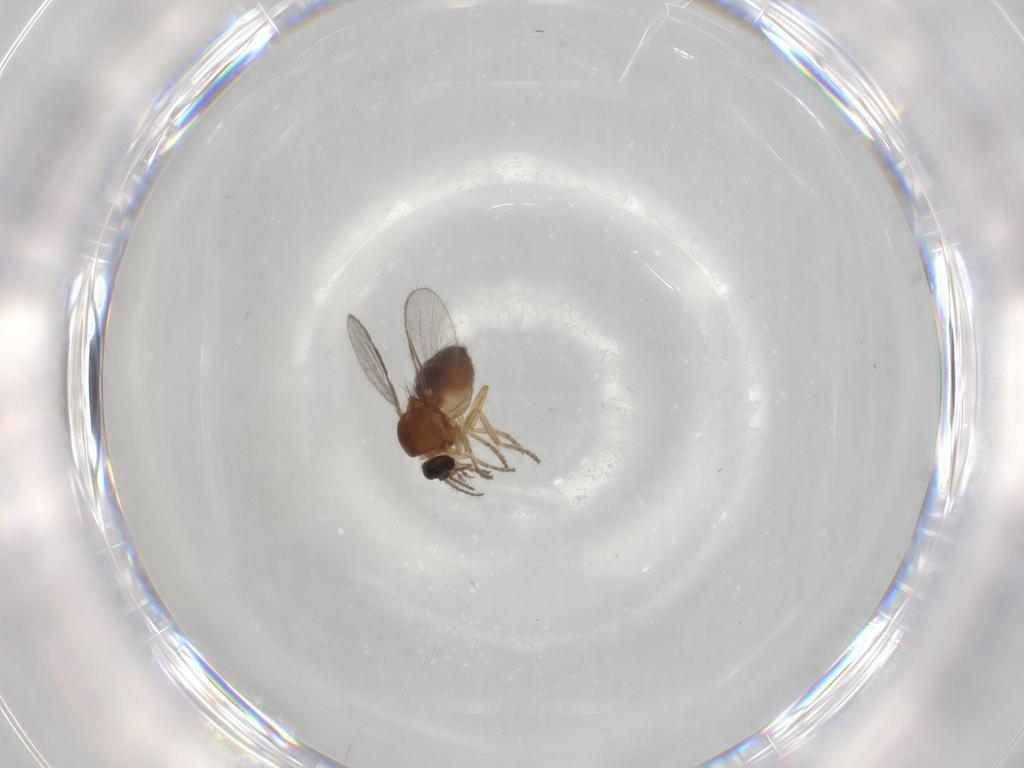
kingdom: Animalia
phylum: Arthropoda
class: Insecta
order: Diptera
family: Ceratopogonidae
